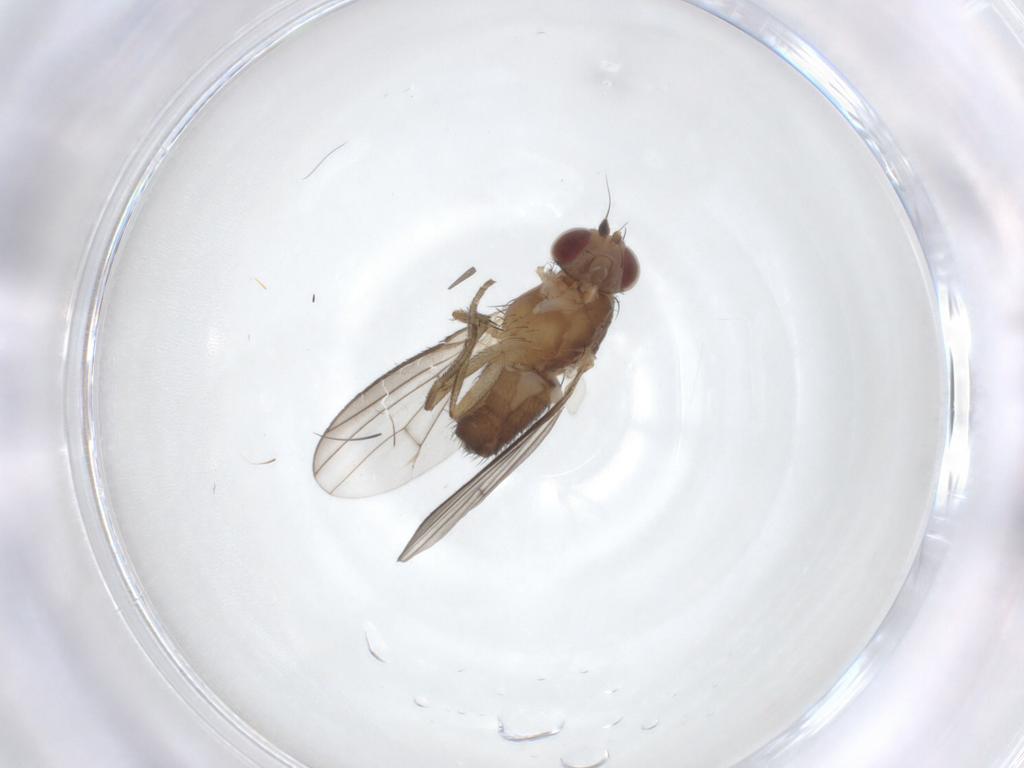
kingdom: Animalia
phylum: Arthropoda
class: Insecta
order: Diptera
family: Heleomyzidae
